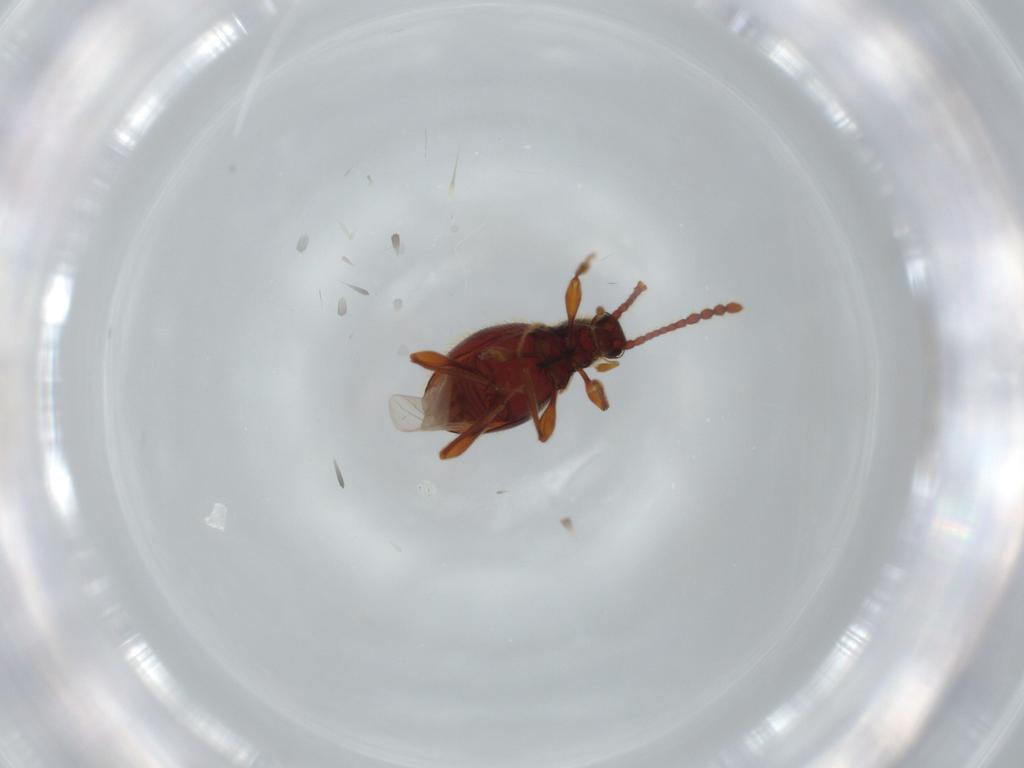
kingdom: Animalia
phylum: Arthropoda
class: Insecta
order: Coleoptera
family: Staphylinidae
